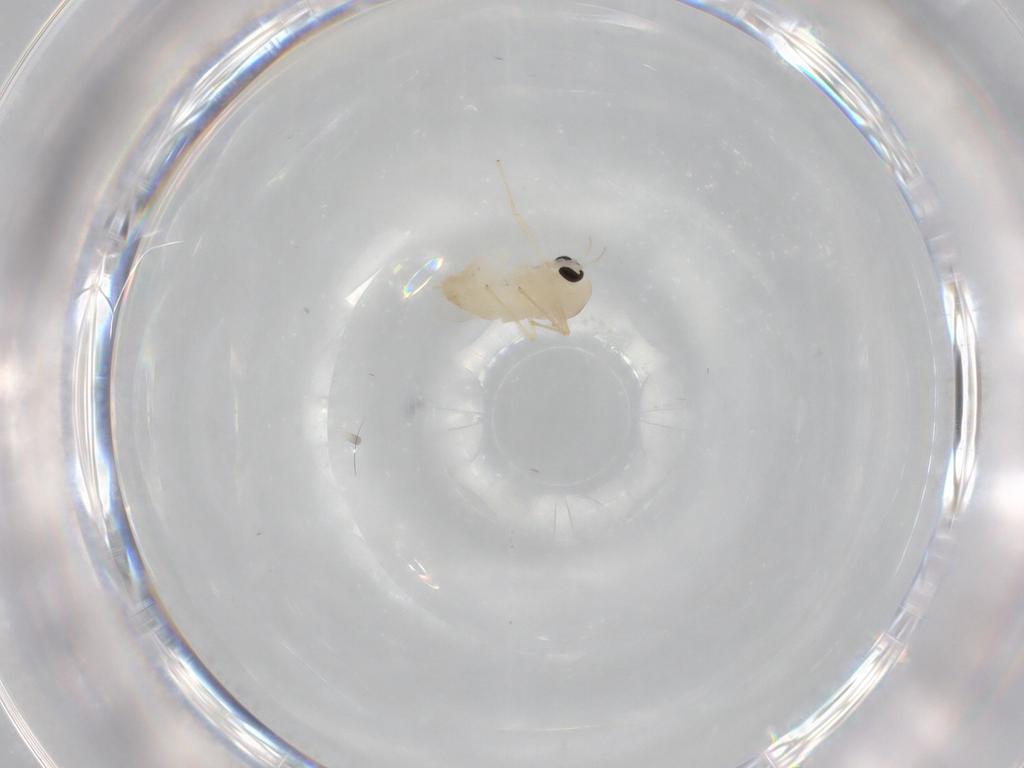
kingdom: Animalia
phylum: Arthropoda
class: Insecta
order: Diptera
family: Chironomidae
